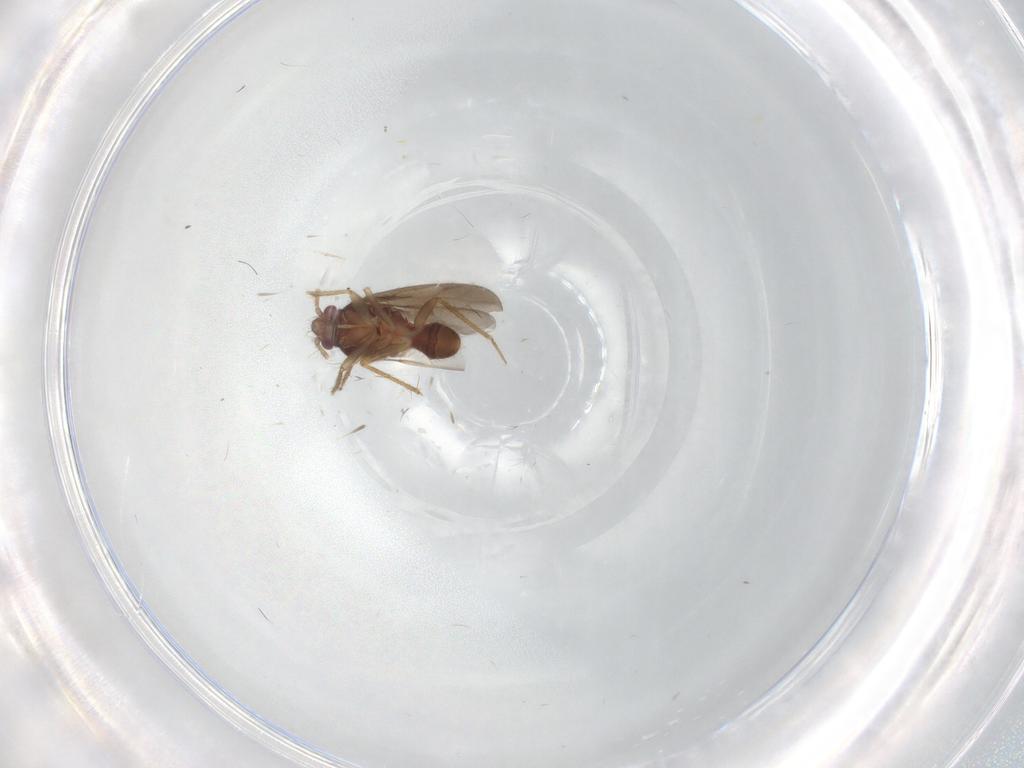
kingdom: Animalia
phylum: Arthropoda
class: Insecta
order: Hemiptera
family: Ceratocombidae
